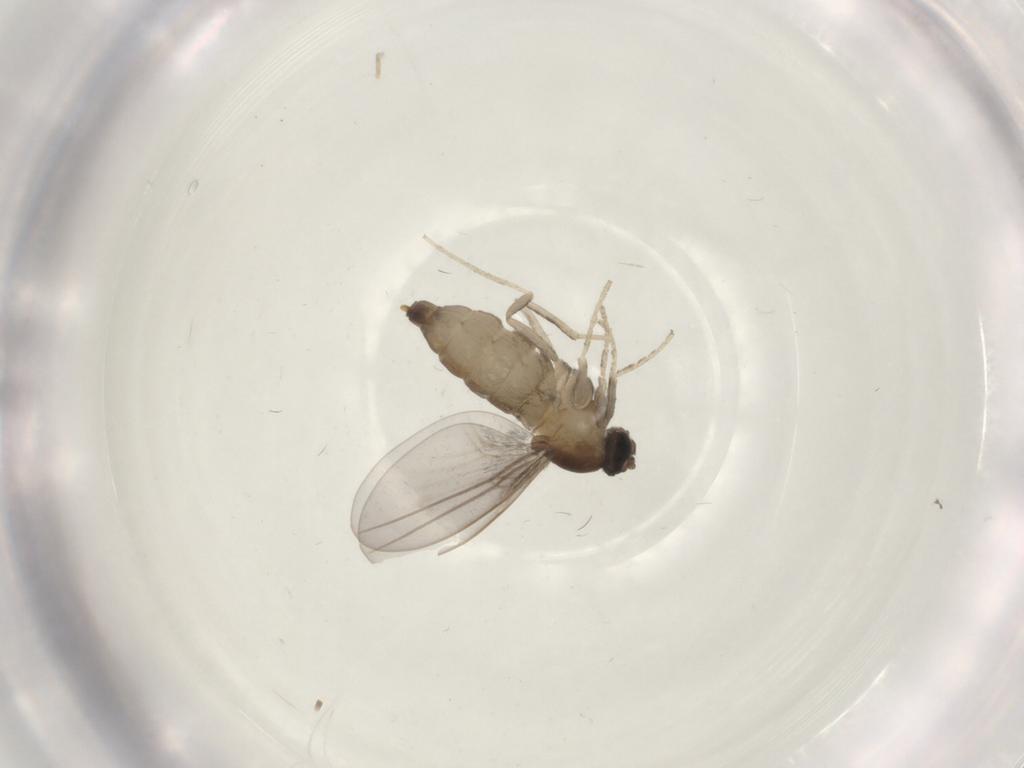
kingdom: Animalia
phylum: Arthropoda
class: Insecta
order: Diptera
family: Cecidomyiidae
